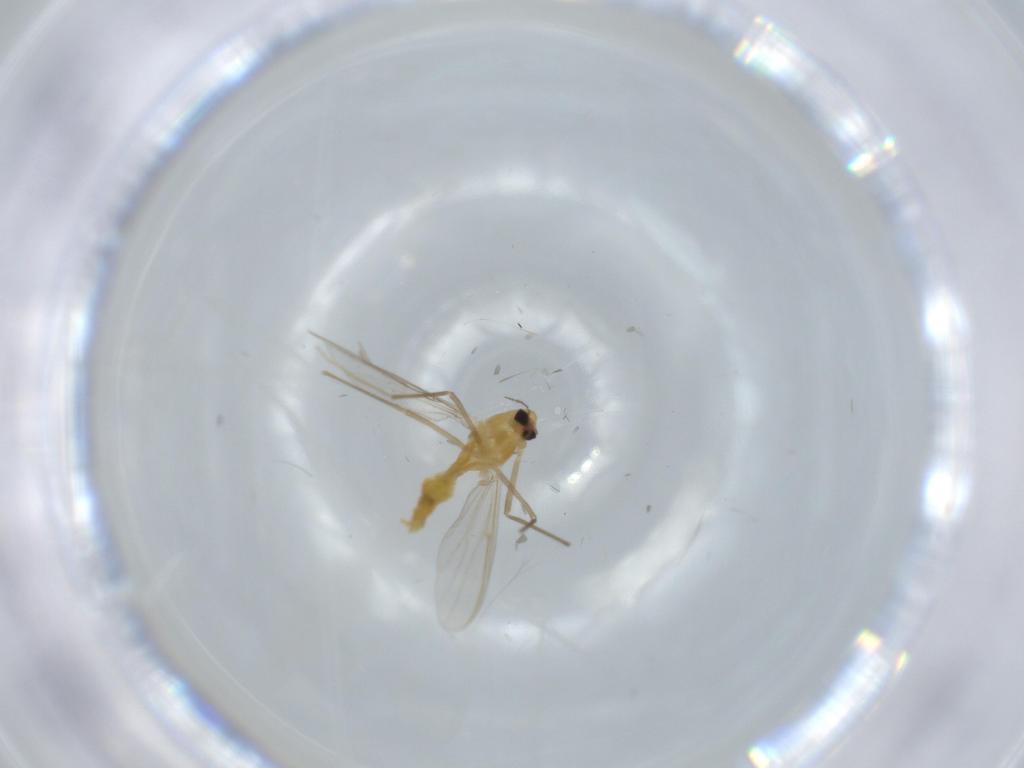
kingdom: Animalia
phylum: Arthropoda
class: Insecta
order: Diptera
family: Chironomidae
